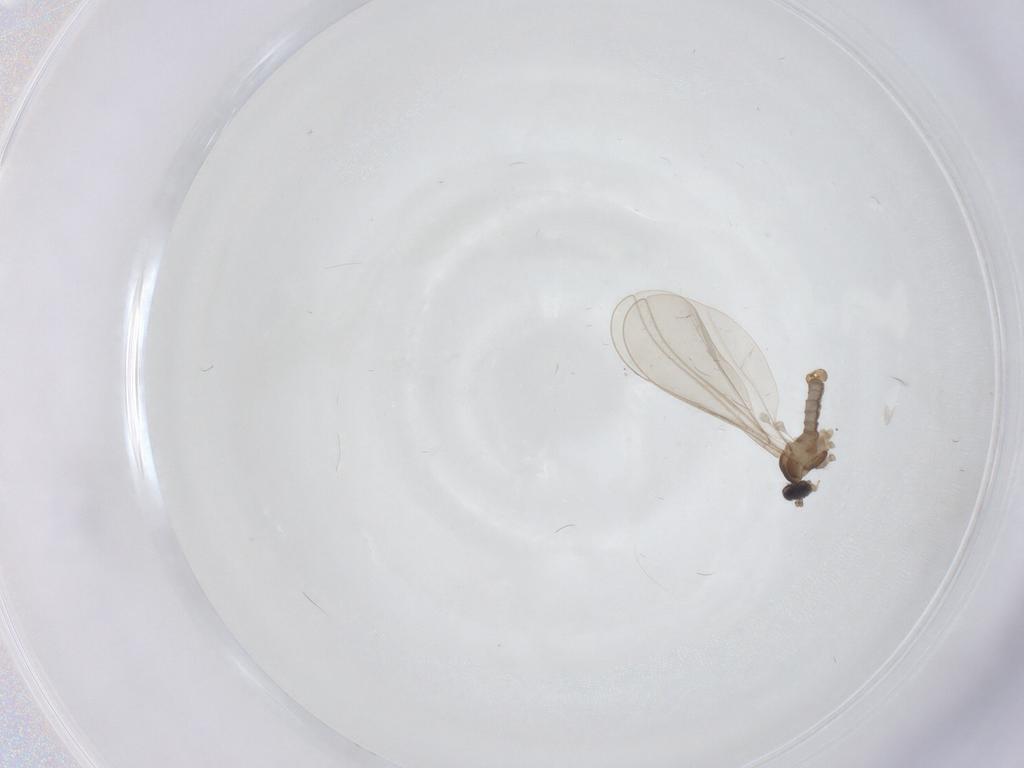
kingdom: Animalia
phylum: Arthropoda
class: Insecta
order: Diptera
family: Cecidomyiidae
